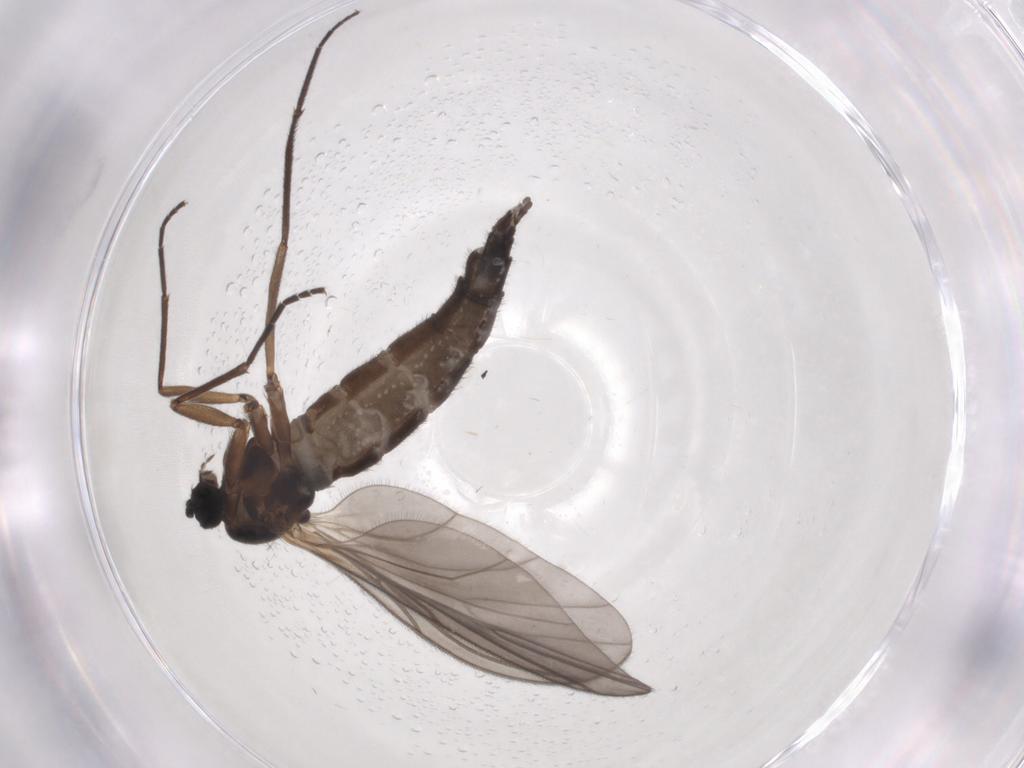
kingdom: Animalia
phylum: Arthropoda
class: Insecta
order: Diptera
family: Sciaridae
